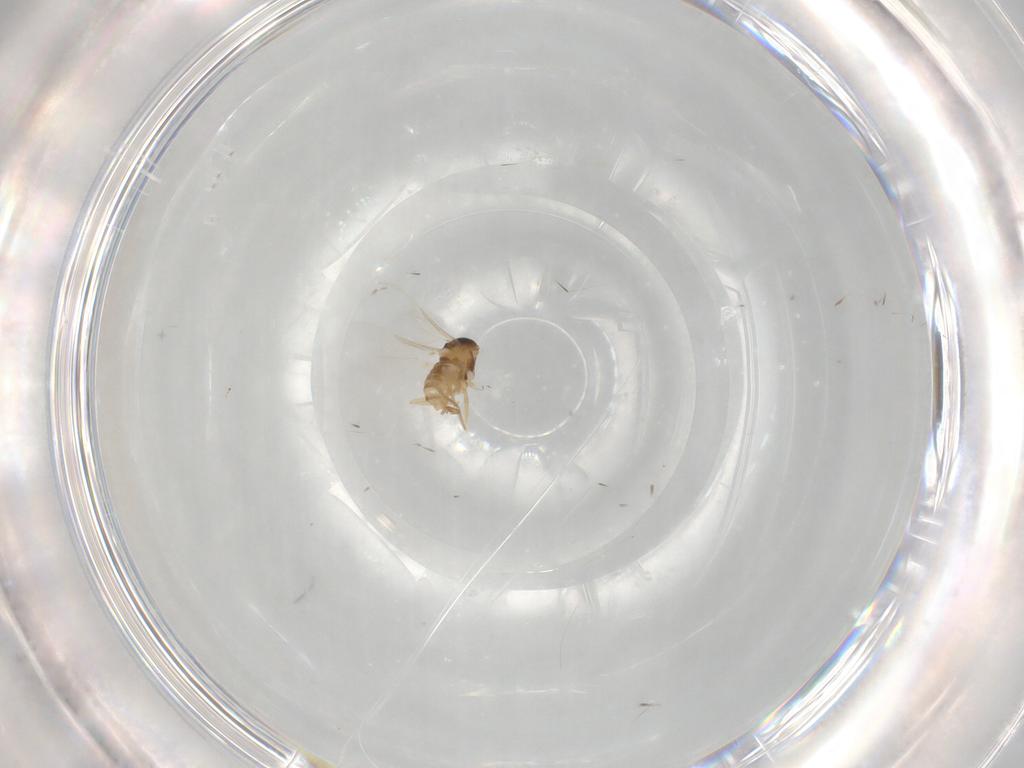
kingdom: Animalia
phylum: Arthropoda
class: Insecta
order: Diptera
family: Cecidomyiidae
